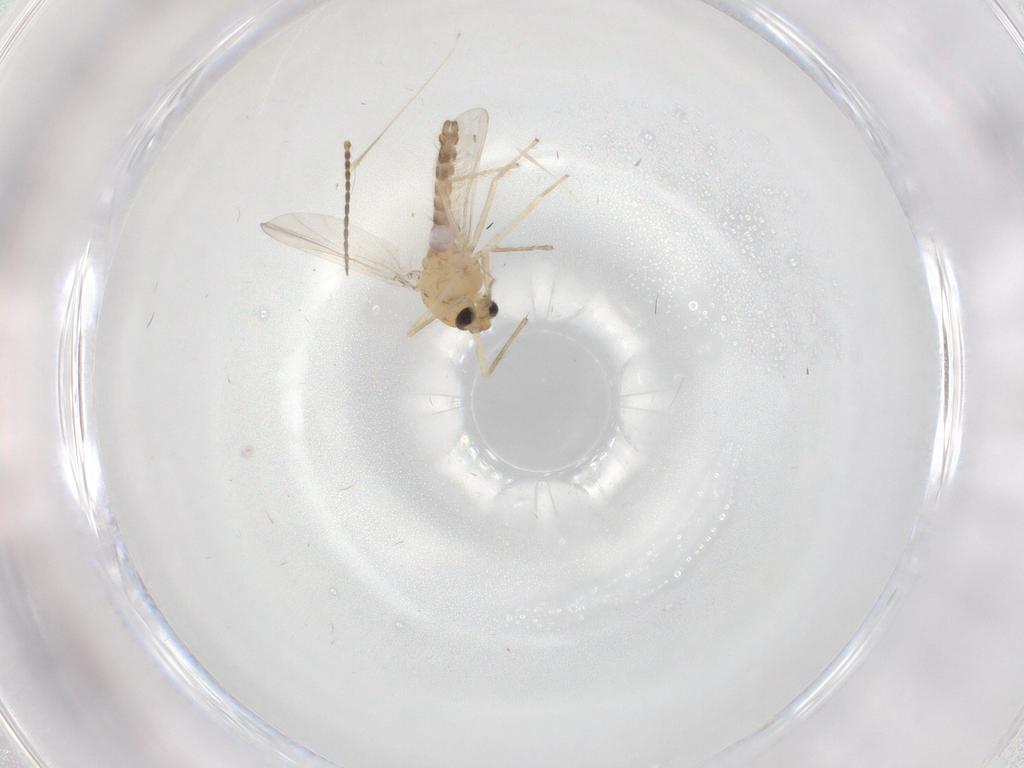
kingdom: Animalia
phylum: Arthropoda
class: Insecta
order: Diptera
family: Chironomidae
